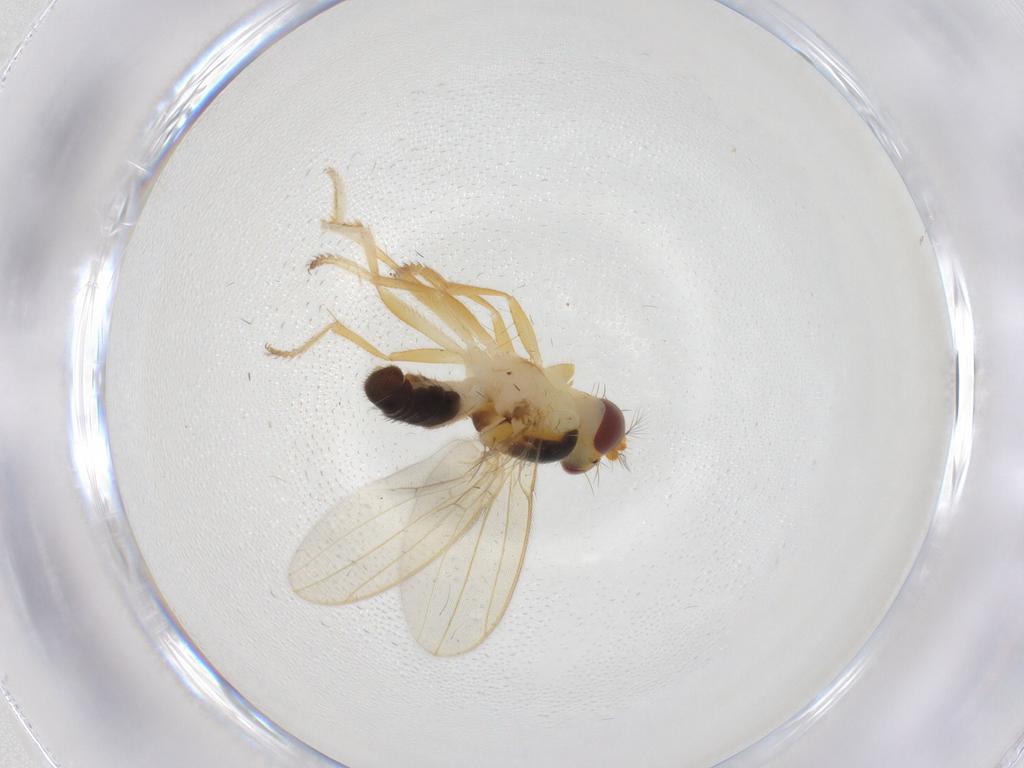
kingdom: Animalia
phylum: Arthropoda
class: Insecta
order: Diptera
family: Periscelididae
